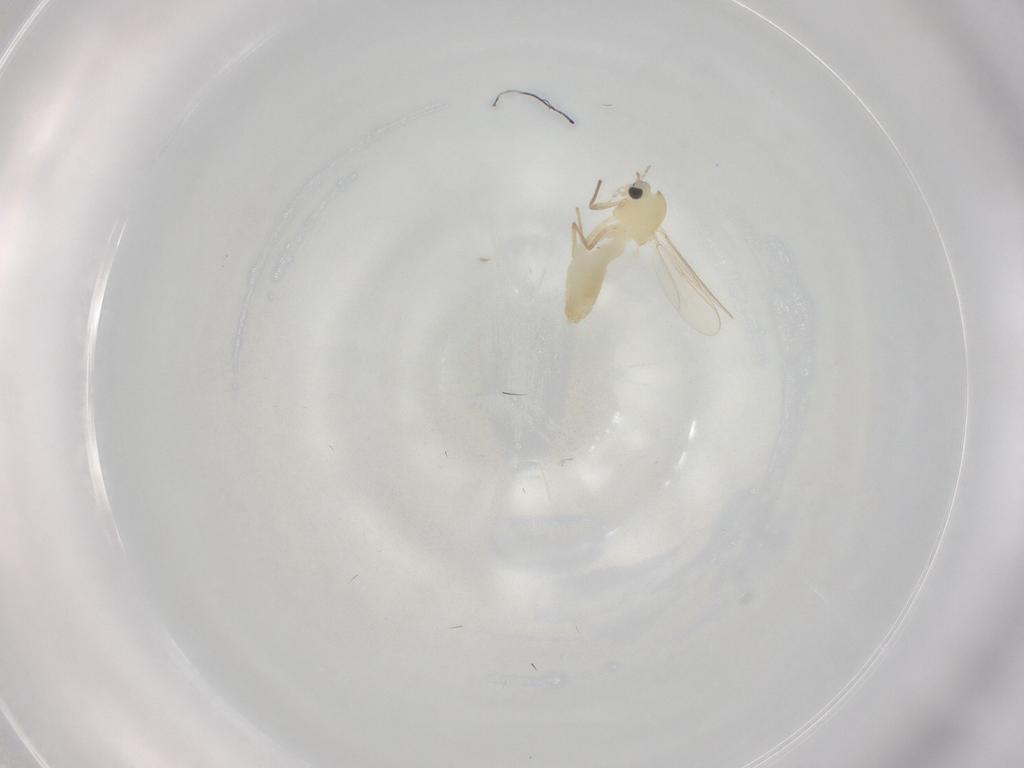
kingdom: Animalia
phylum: Arthropoda
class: Insecta
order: Diptera
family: Chironomidae
